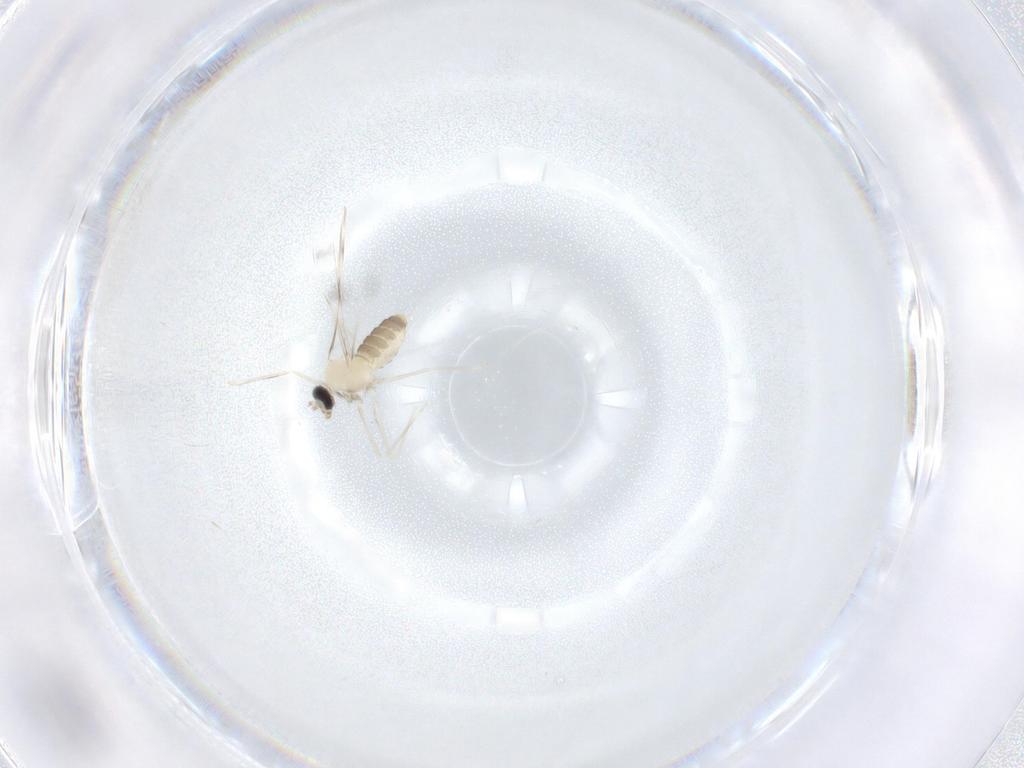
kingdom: Animalia
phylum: Arthropoda
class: Insecta
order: Diptera
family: Cecidomyiidae
